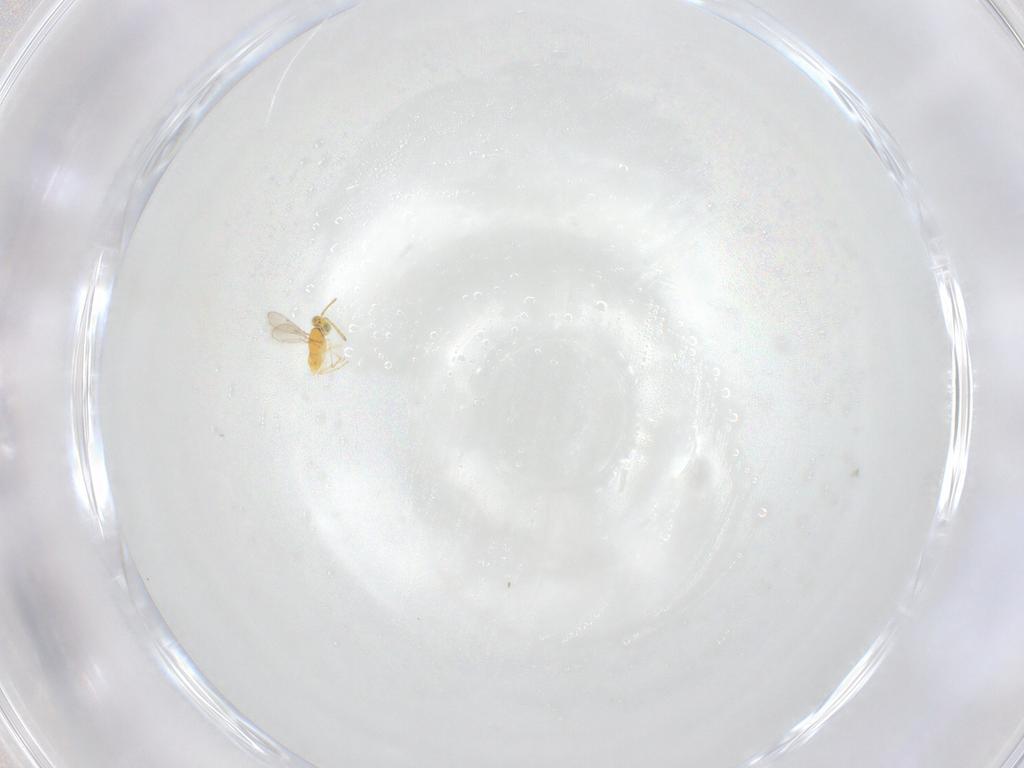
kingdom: Animalia
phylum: Arthropoda
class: Insecta
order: Hymenoptera
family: Aphelinidae
